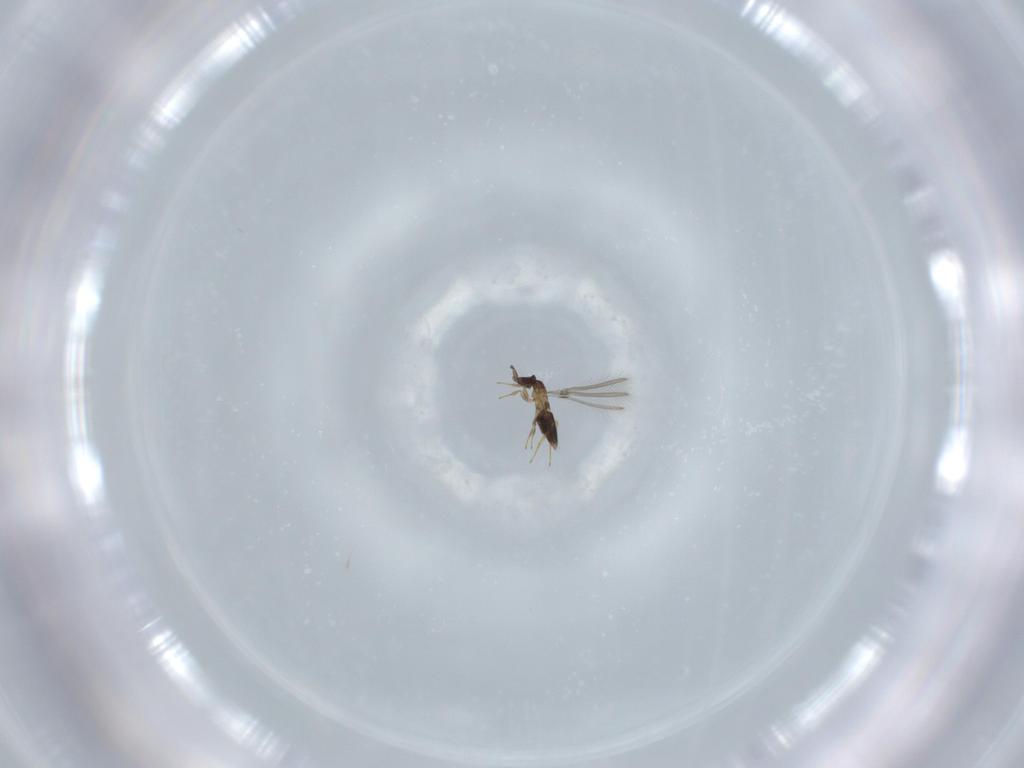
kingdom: Animalia
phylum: Arthropoda
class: Insecta
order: Hymenoptera
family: Mymaridae
